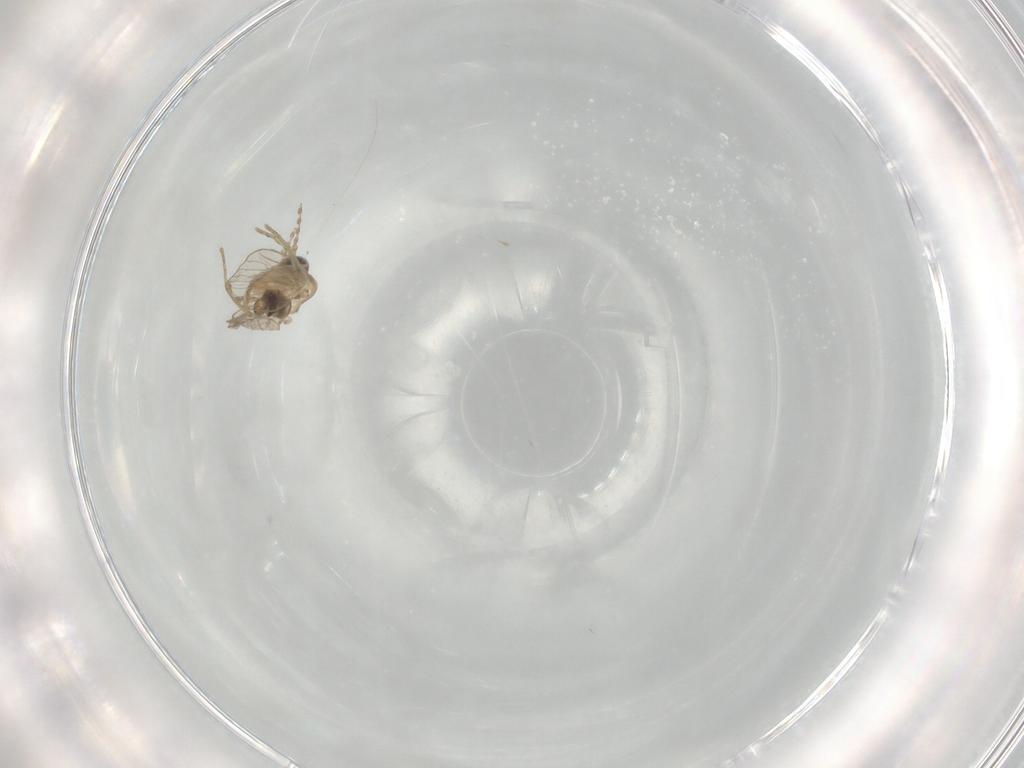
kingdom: Animalia
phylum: Arthropoda
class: Insecta
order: Diptera
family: Milichiidae
